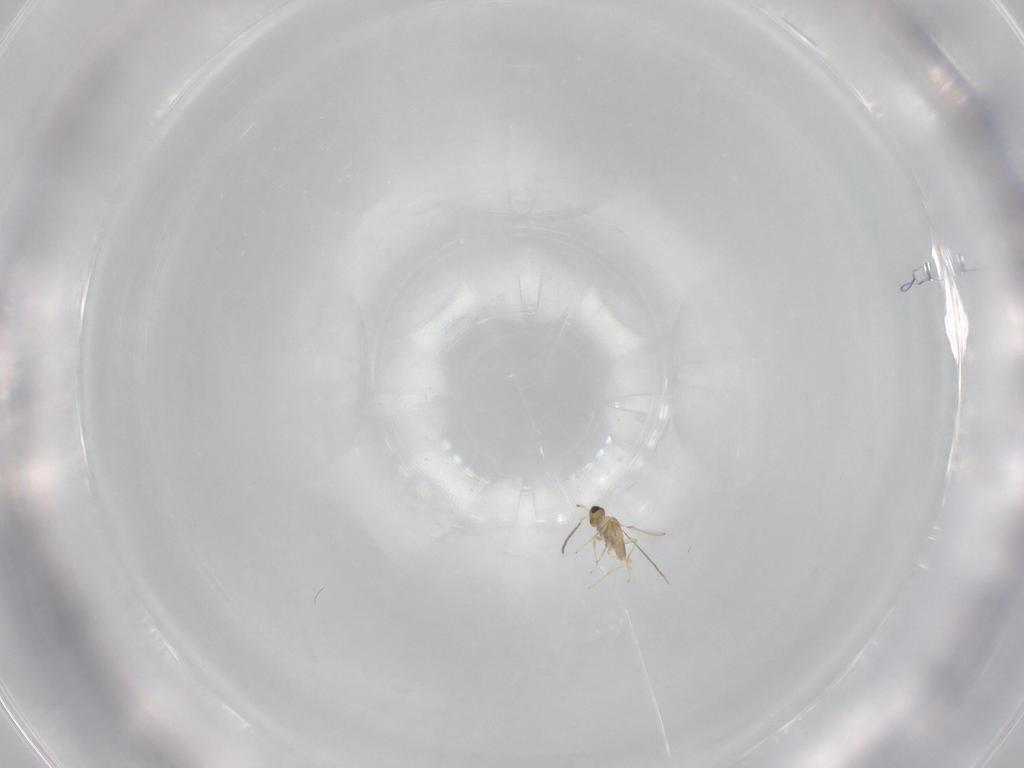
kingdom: Animalia
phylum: Arthropoda
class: Insecta
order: Hymenoptera
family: Mymaridae
